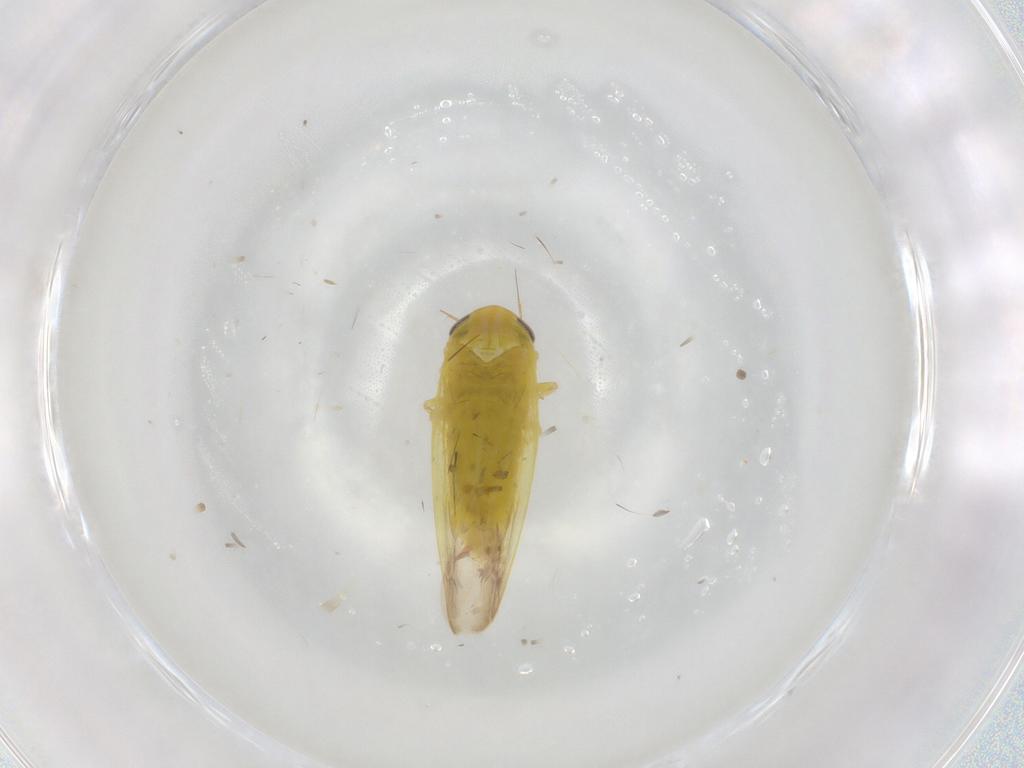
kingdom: Animalia
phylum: Arthropoda
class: Insecta
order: Hemiptera
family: Cicadellidae
